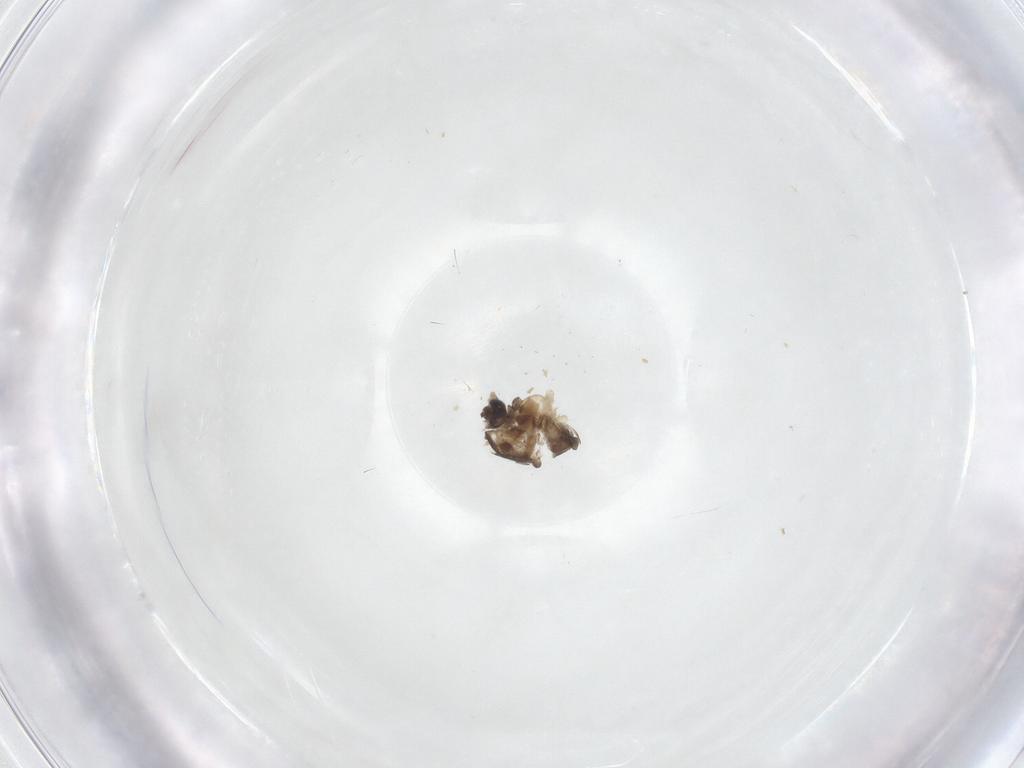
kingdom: Animalia
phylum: Arthropoda
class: Insecta
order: Diptera
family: Chironomidae
